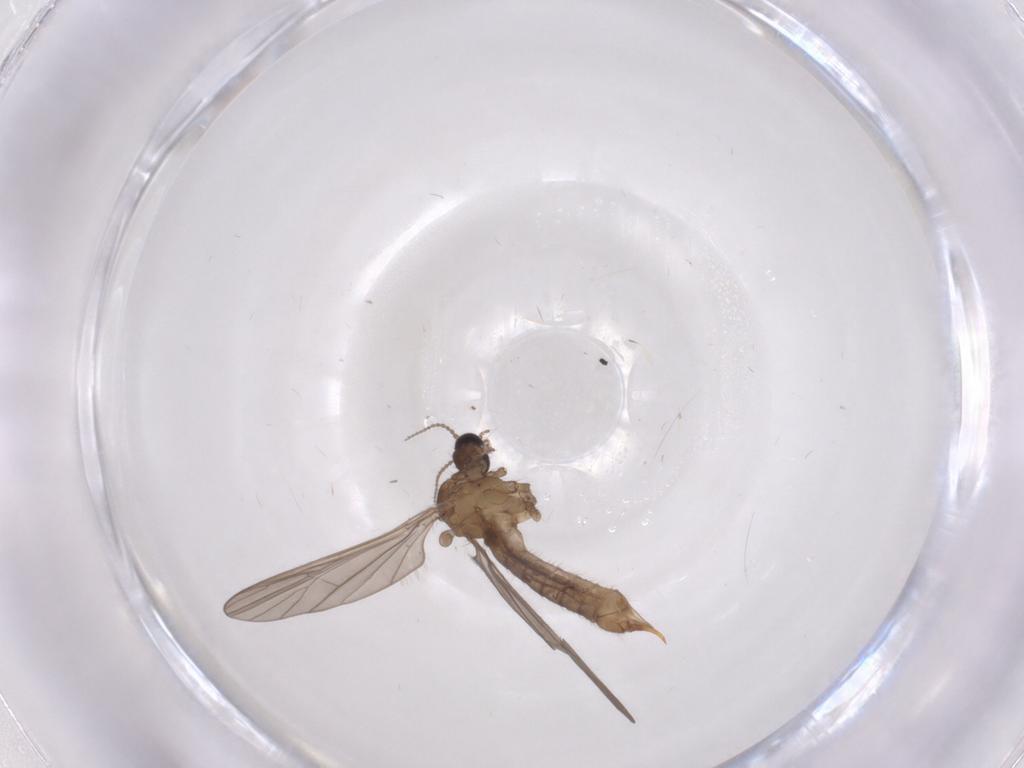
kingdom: Animalia
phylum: Arthropoda
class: Insecta
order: Diptera
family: Limoniidae
